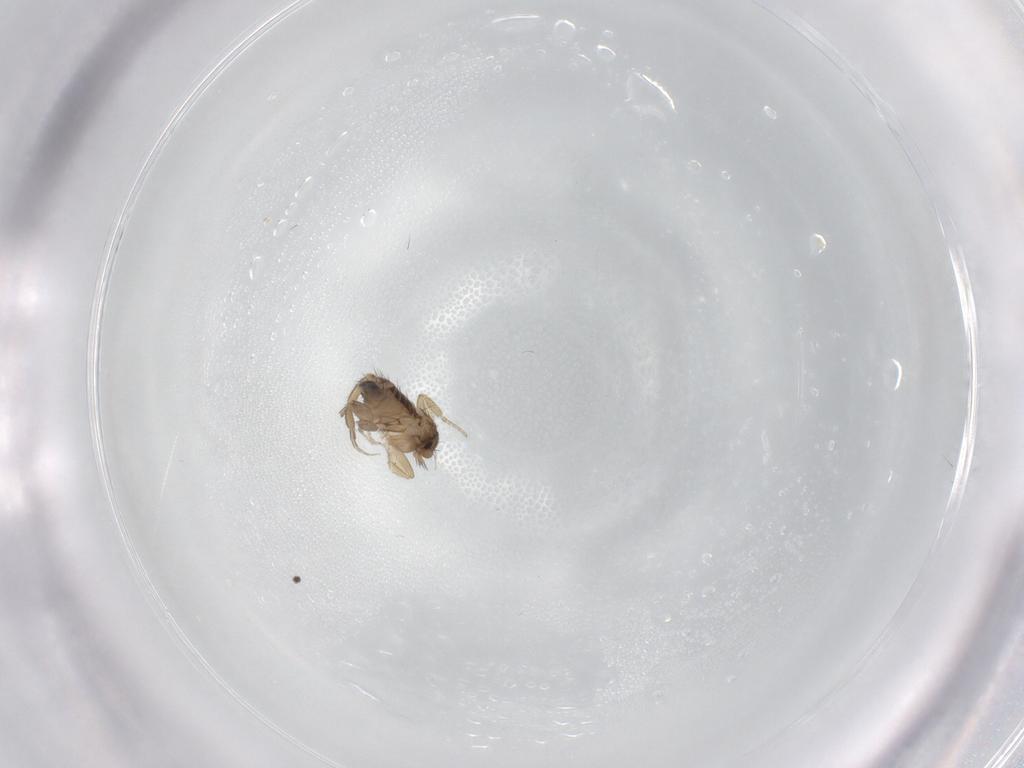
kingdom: Animalia
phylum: Arthropoda
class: Insecta
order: Diptera
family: Phoridae
